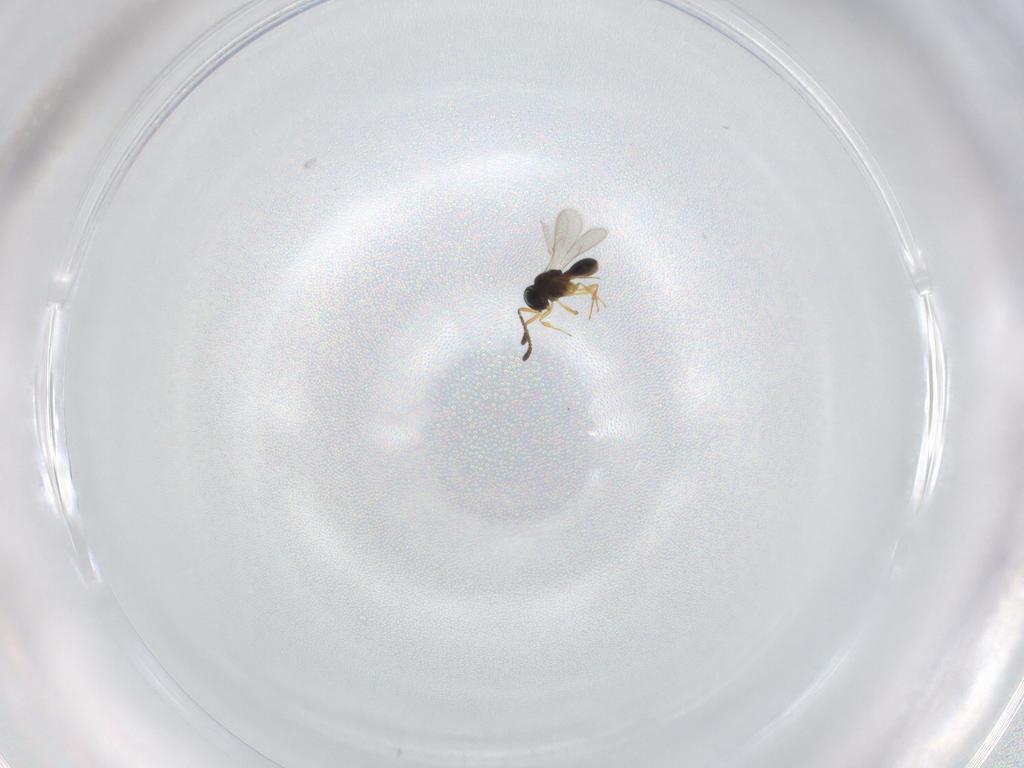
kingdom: Animalia
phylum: Arthropoda
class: Insecta
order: Hymenoptera
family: Scelionidae
